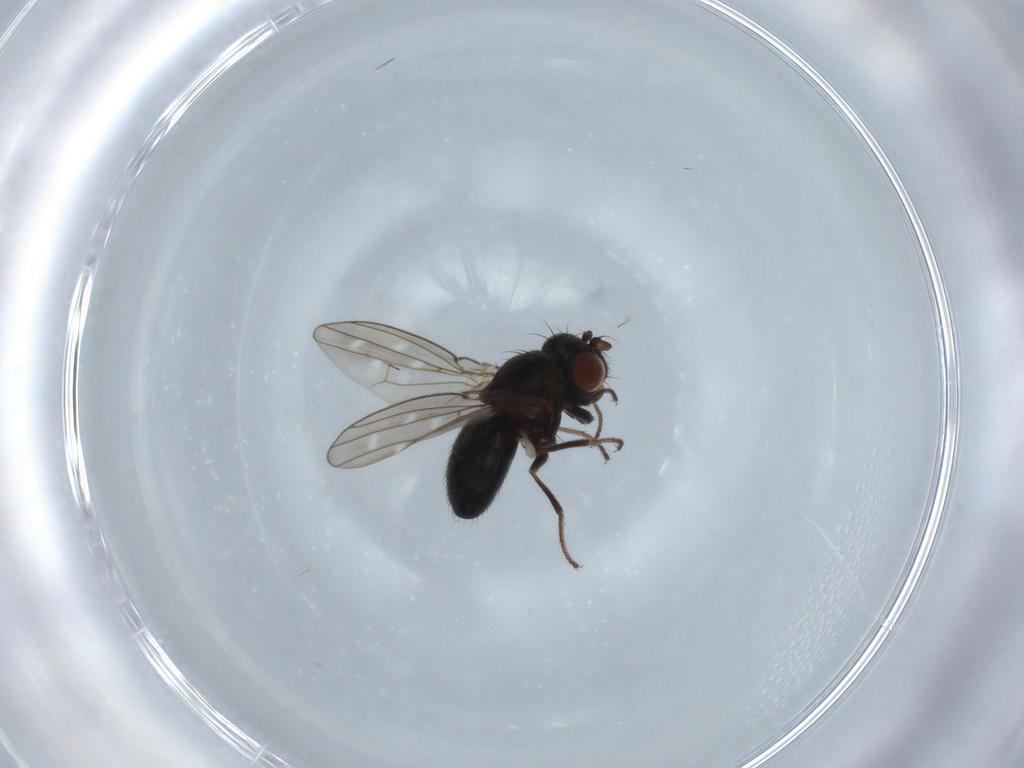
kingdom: Animalia
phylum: Arthropoda
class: Insecta
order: Diptera
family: Ephydridae
